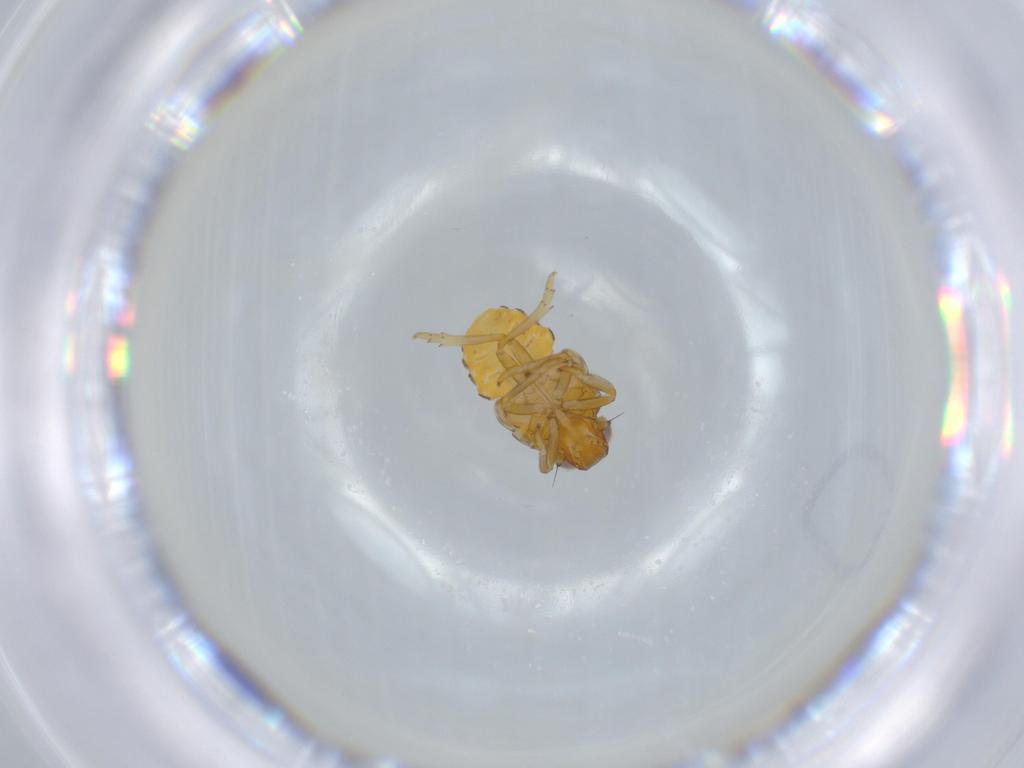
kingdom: Animalia
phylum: Arthropoda
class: Insecta
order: Hemiptera
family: Issidae
